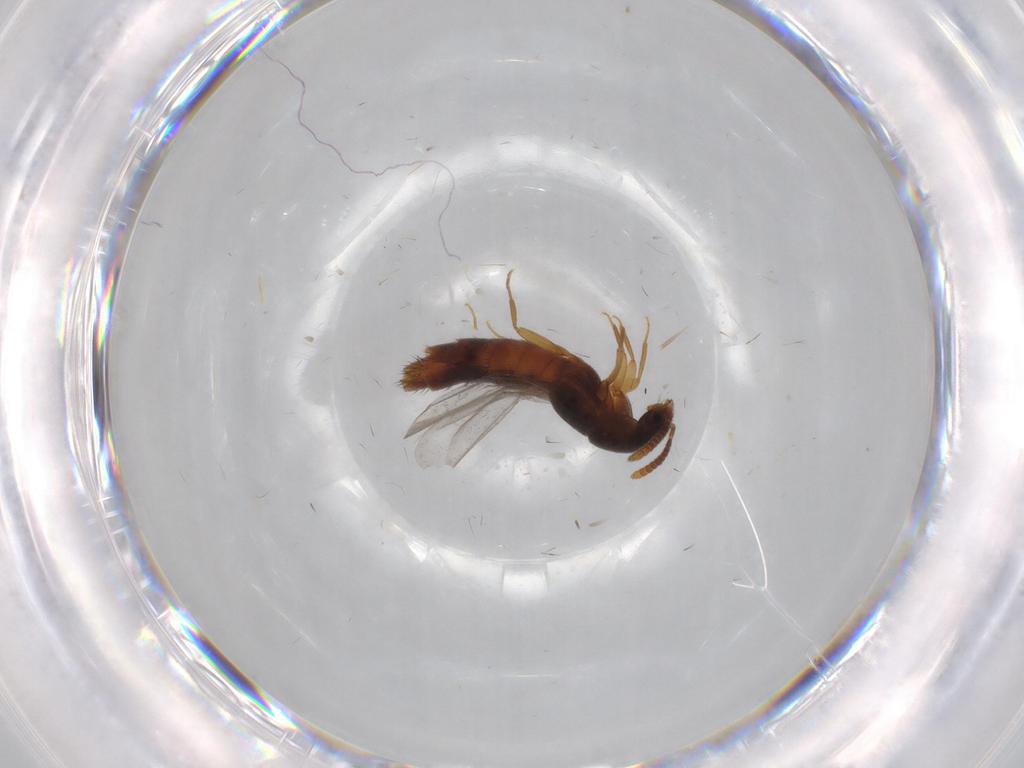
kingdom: Animalia
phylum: Arthropoda
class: Insecta
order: Coleoptera
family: Staphylinidae
